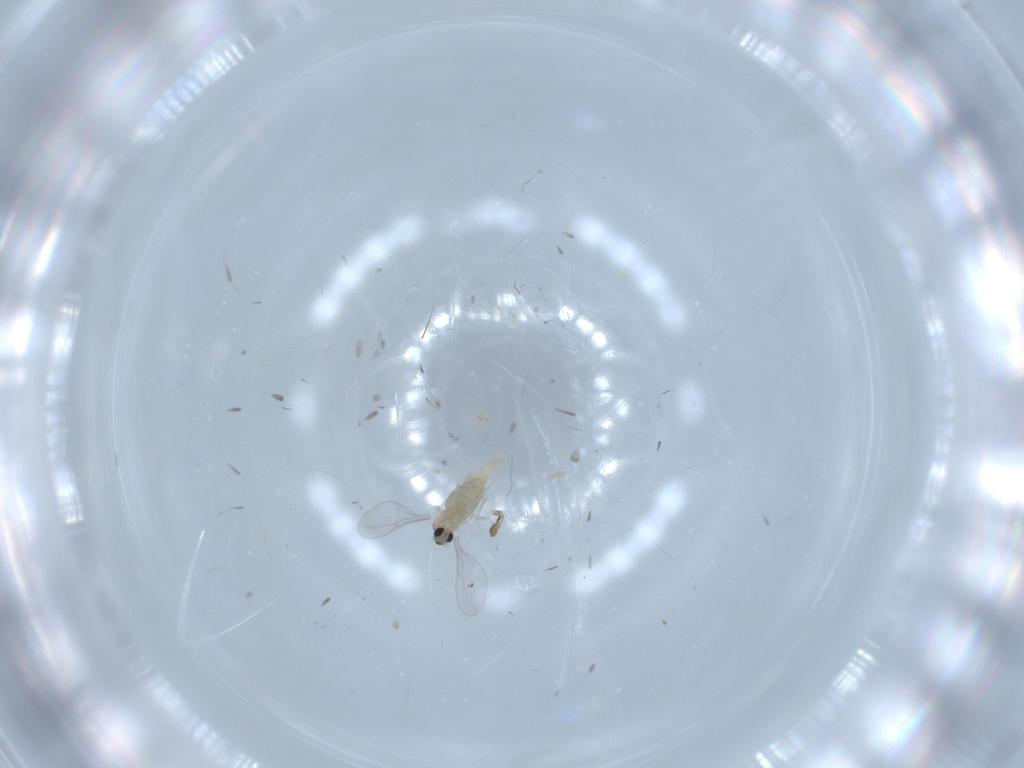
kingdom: Animalia
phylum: Arthropoda
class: Insecta
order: Diptera
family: Cecidomyiidae
